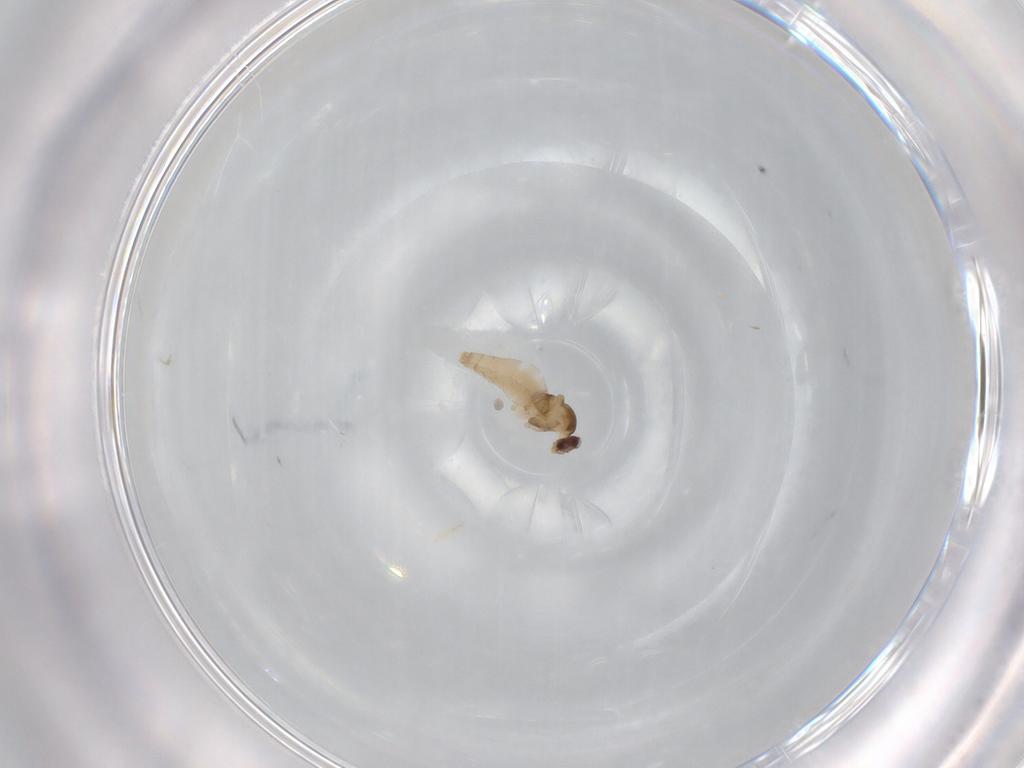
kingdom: Animalia
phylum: Arthropoda
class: Insecta
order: Diptera
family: Cecidomyiidae
